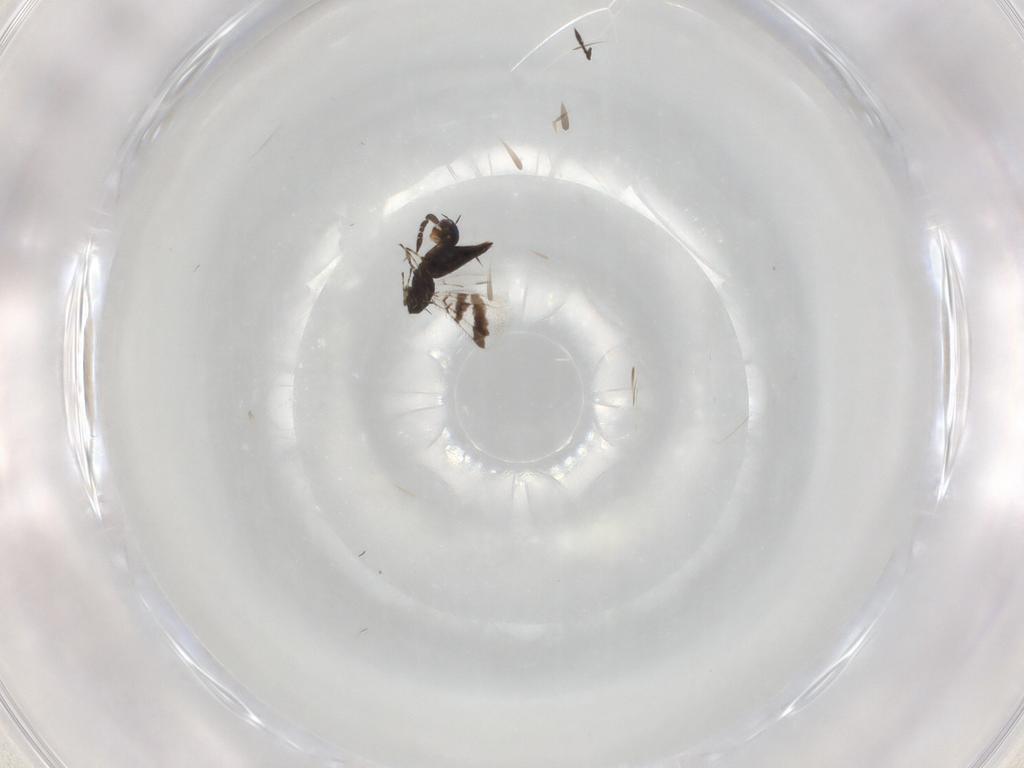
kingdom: Animalia
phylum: Arthropoda
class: Insecta
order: Hymenoptera
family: Eulophidae
